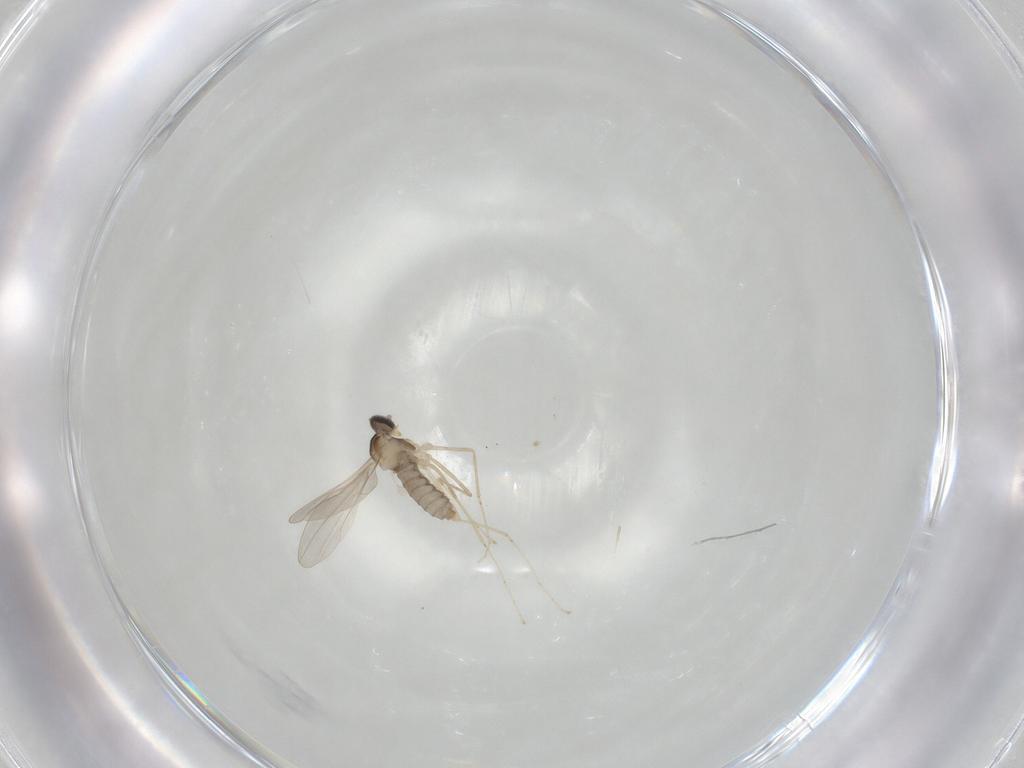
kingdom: Animalia
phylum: Arthropoda
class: Insecta
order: Diptera
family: Cecidomyiidae
